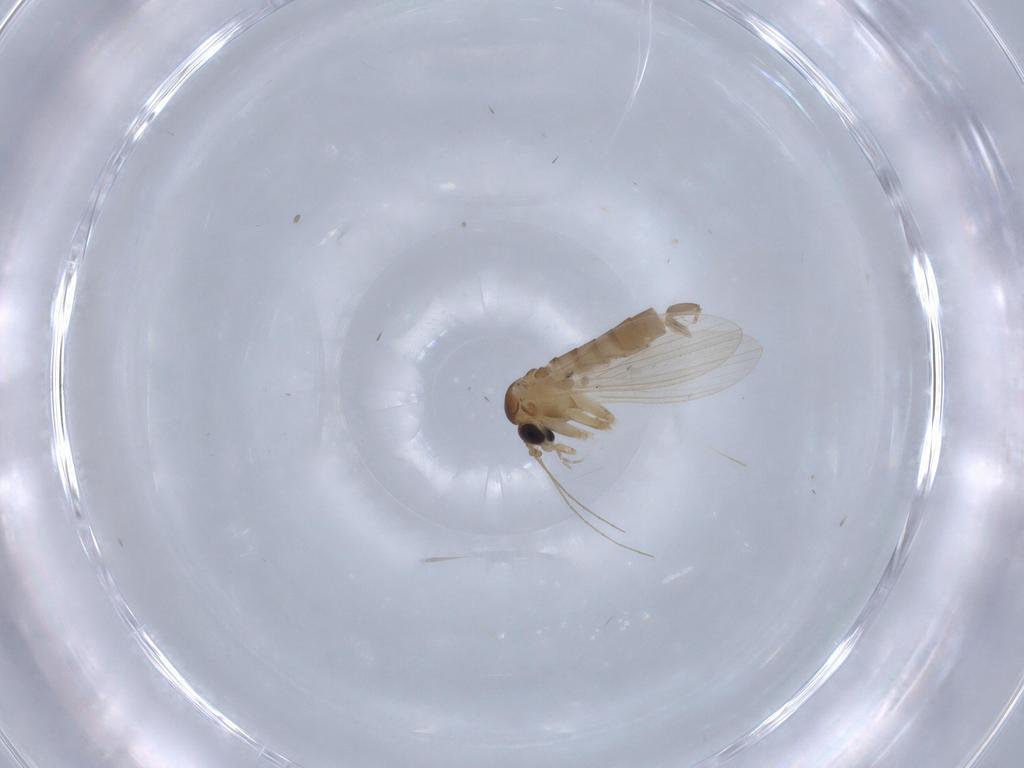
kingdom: Animalia
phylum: Arthropoda
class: Insecta
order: Diptera
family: Psychodidae
